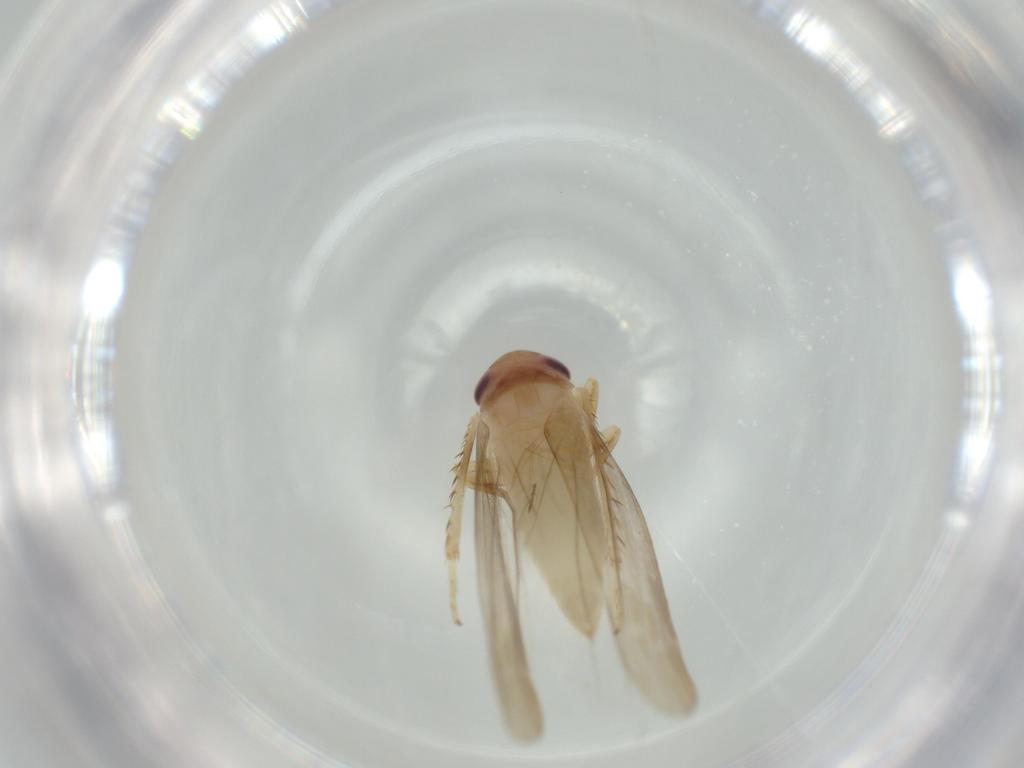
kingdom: Animalia
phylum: Arthropoda
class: Insecta
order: Hemiptera
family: Cicadellidae
